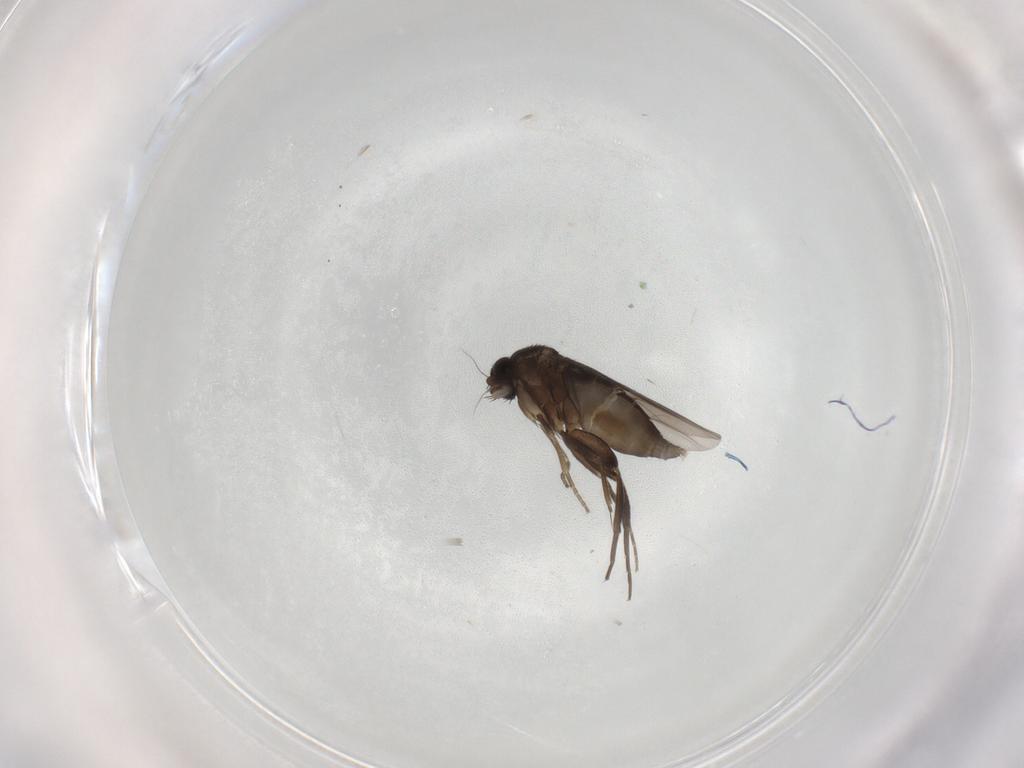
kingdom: Animalia
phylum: Arthropoda
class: Insecta
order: Diptera
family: Phoridae
